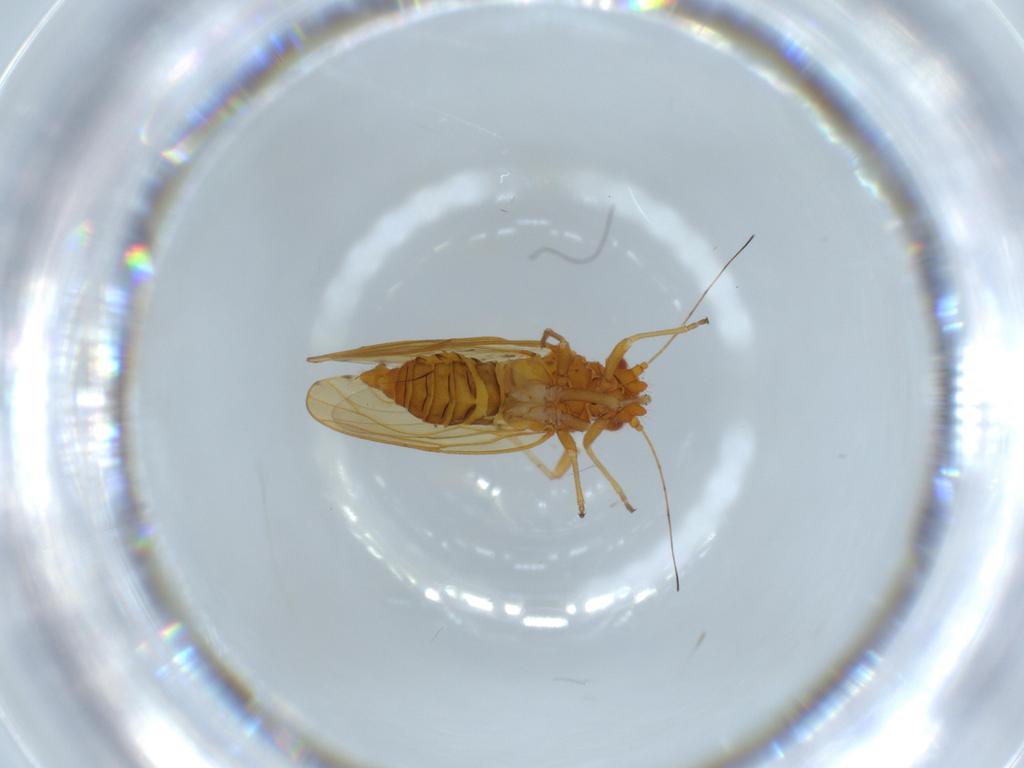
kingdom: Animalia
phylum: Arthropoda
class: Insecta
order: Hemiptera
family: Psylloidea_incertae_sedis
